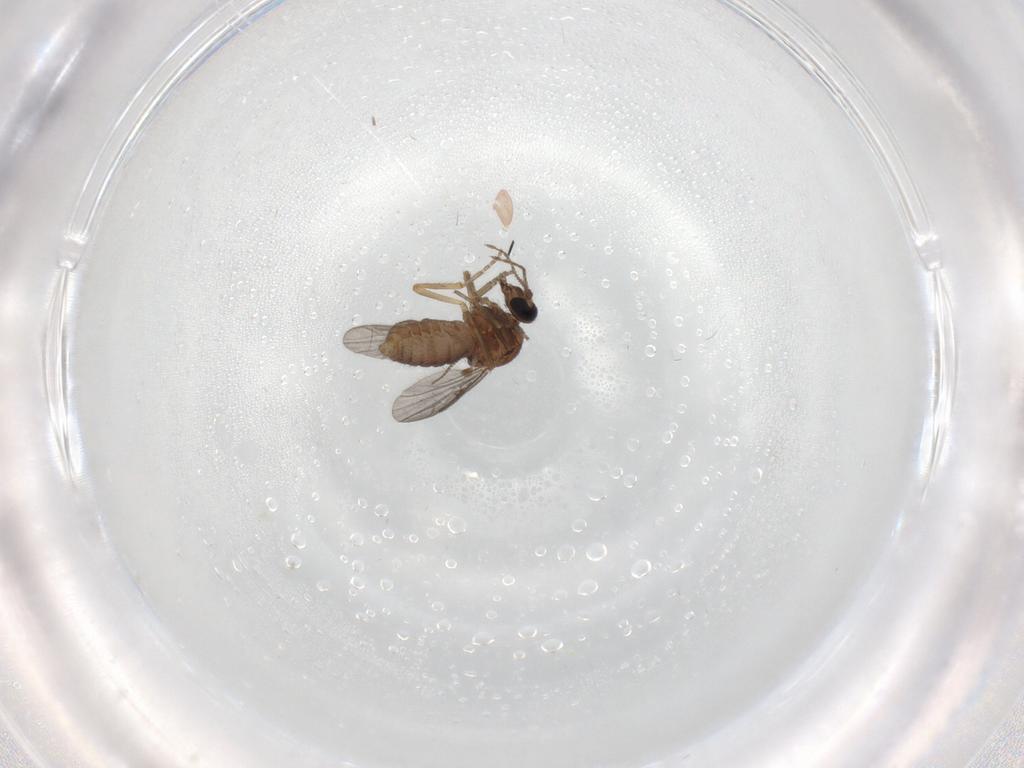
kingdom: Animalia
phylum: Arthropoda
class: Insecta
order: Diptera
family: Ceratopogonidae
